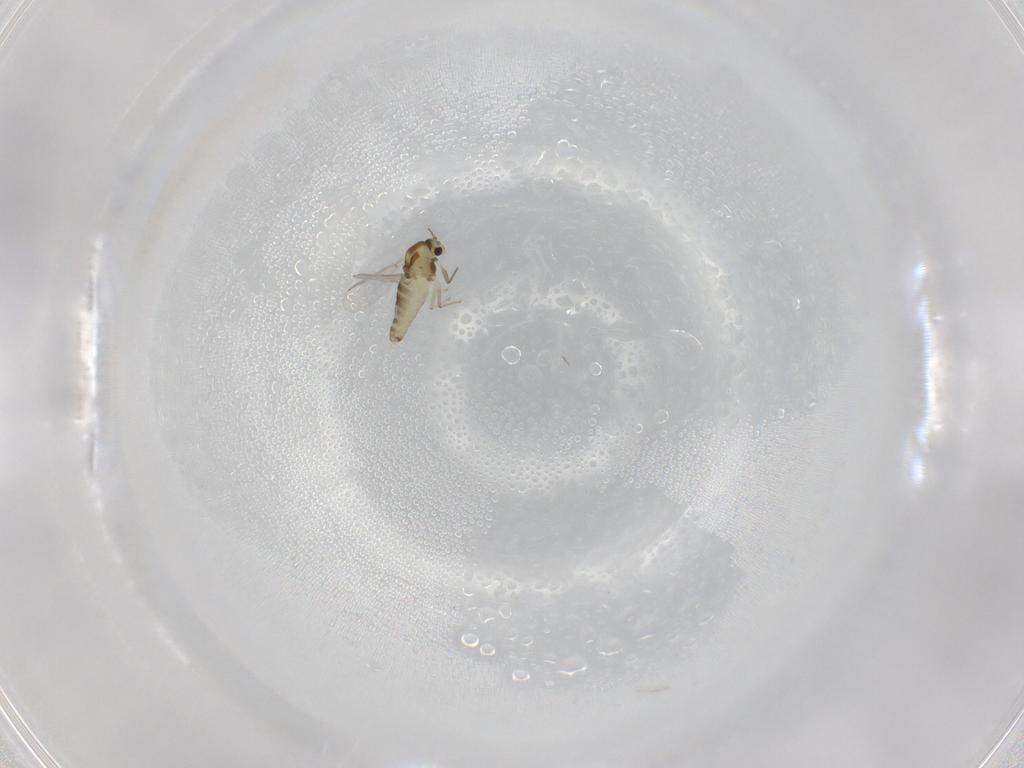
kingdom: Animalia
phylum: Arthropoda
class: Insecta
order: Diptera
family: Chironomidae
